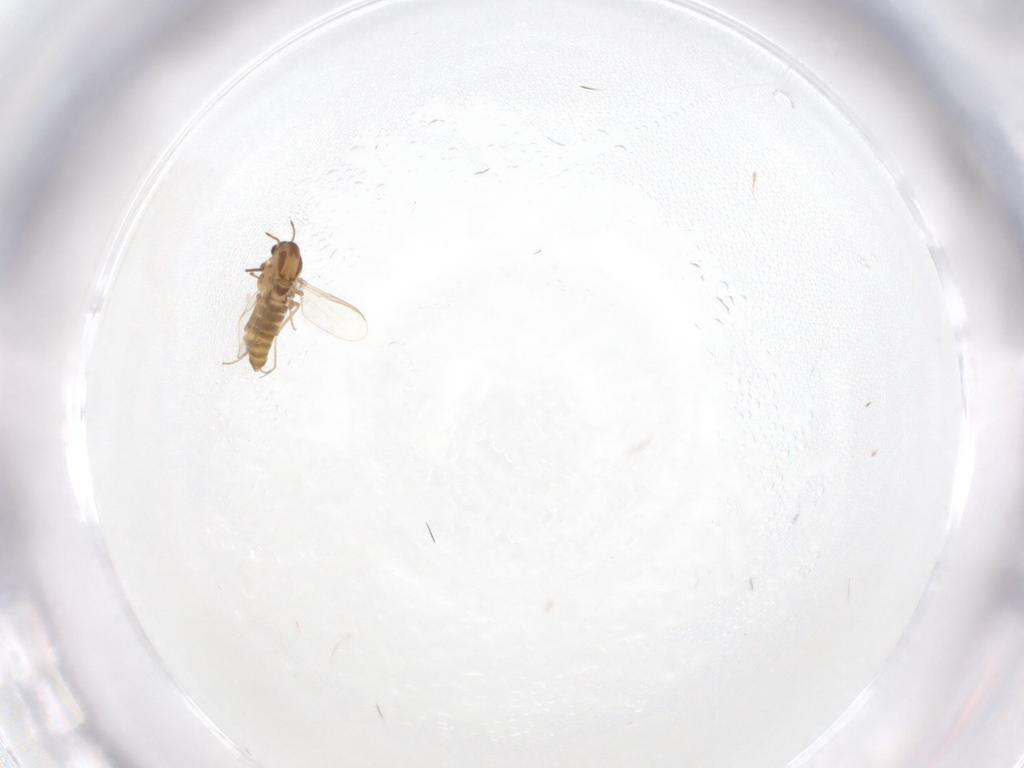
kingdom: Animalia
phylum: Arthropoda
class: Insecta
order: Diptera
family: Chironomidae
